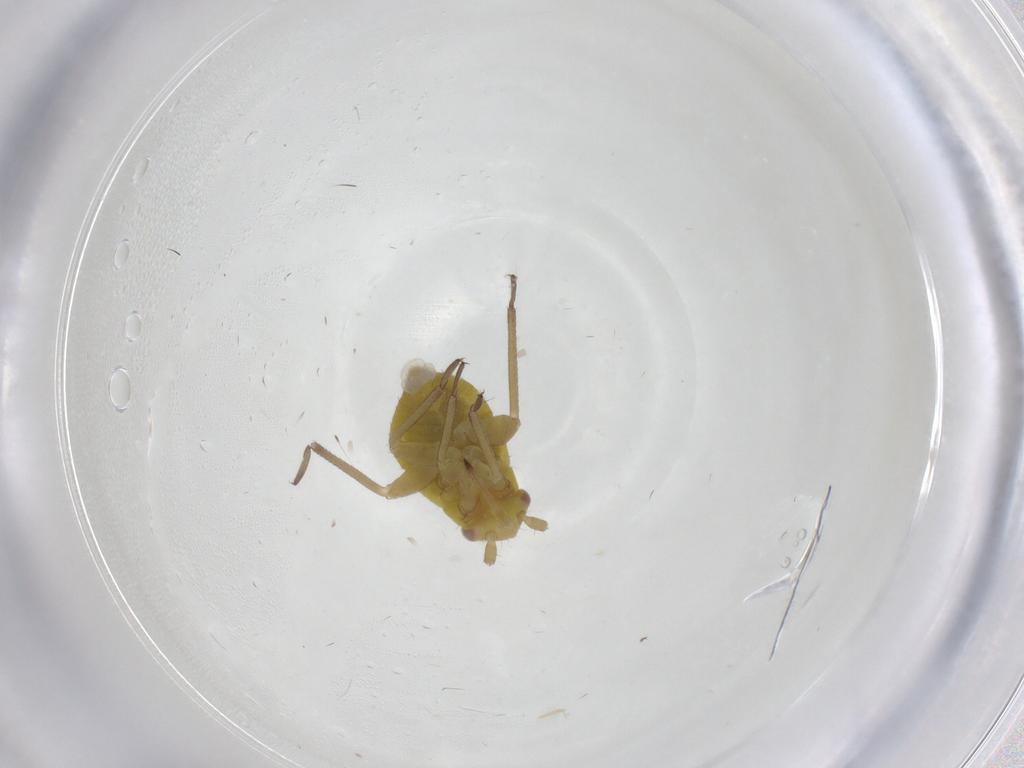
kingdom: Animalia
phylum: Arthropoda
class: Insecta
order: Hemiptera
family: Miridae
